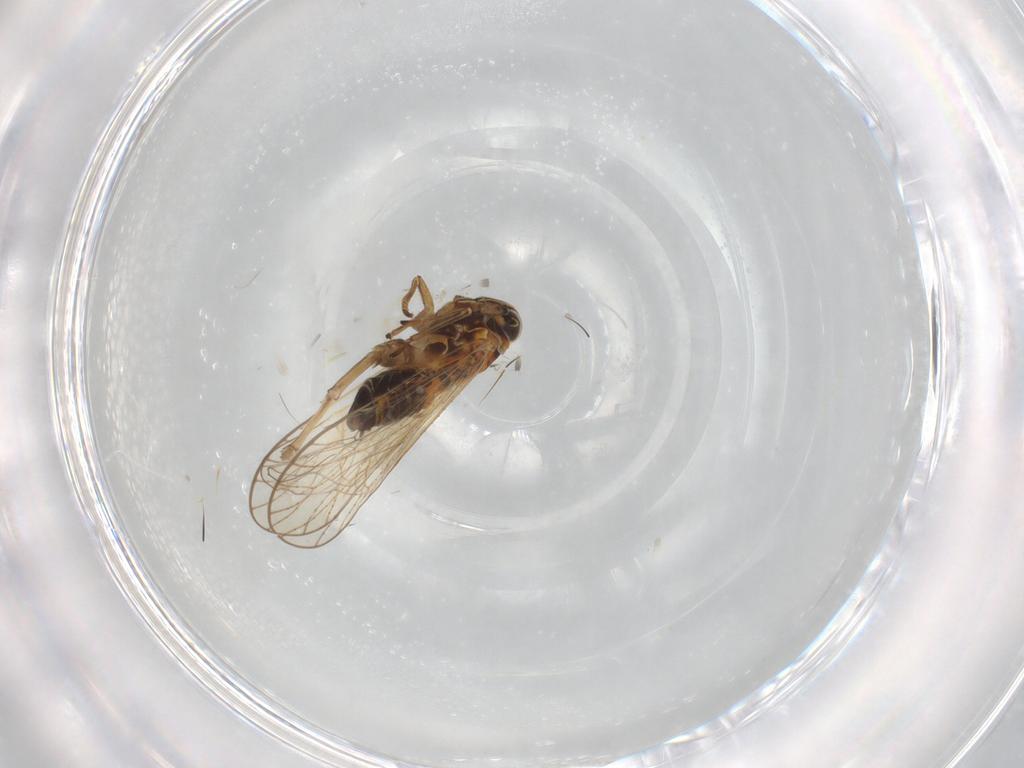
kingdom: Animalia
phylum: Arthropoda
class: Insecta
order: Hemiptera
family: Delphacidae
